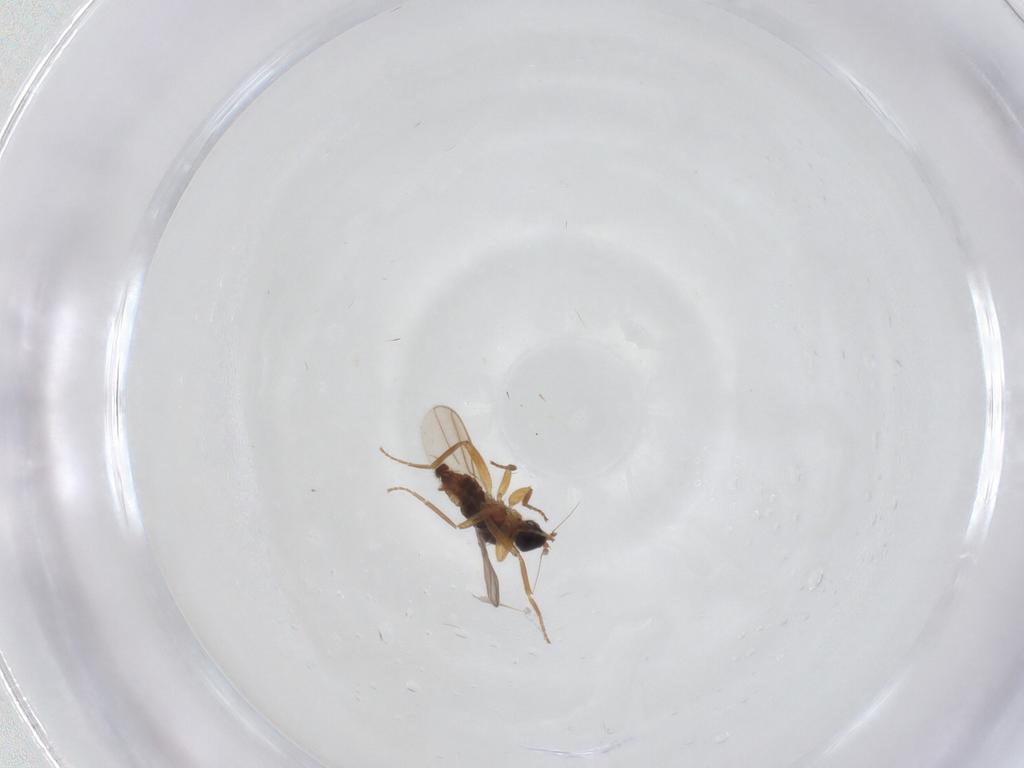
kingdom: Animalia
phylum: Arthropoda
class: Insecta
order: Diptera
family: Hybotidae
